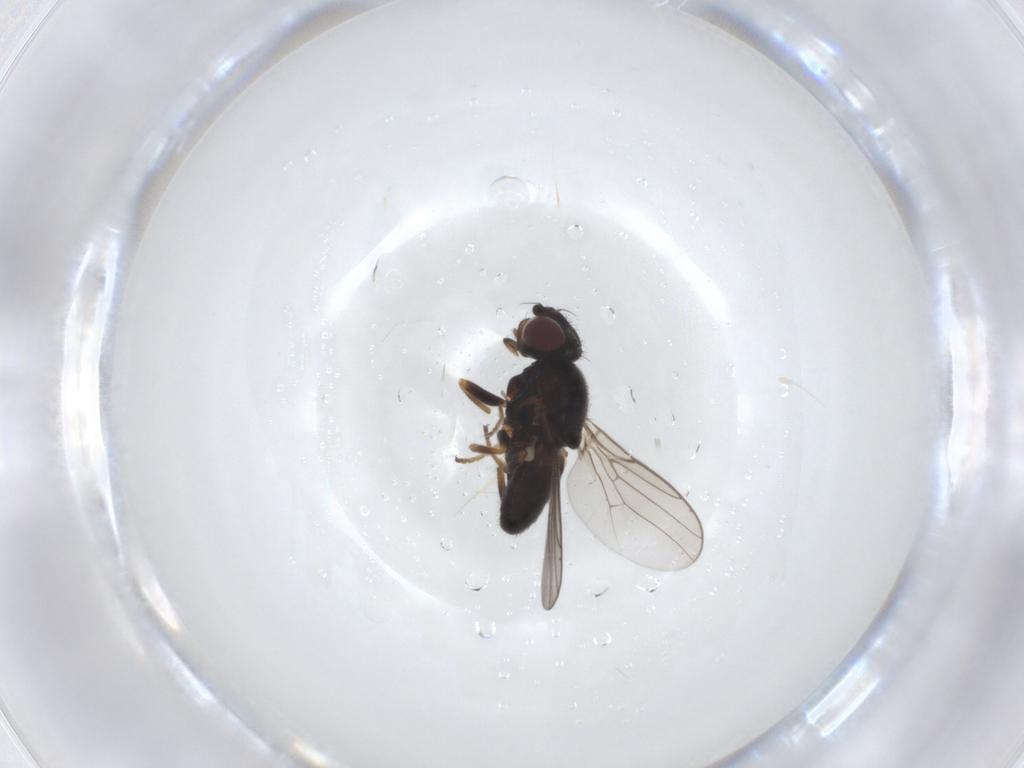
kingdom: Animalia
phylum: Arthropoda
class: Insecta
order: Diptera
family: Chloropidae
